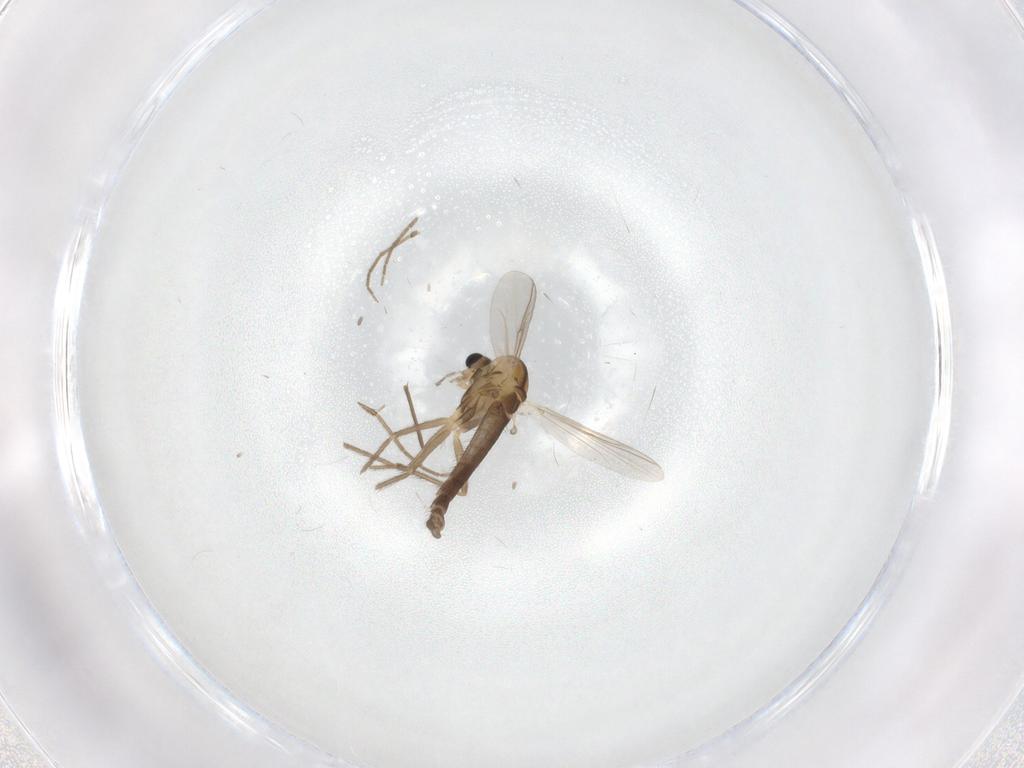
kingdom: Animalia
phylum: Arthropoda
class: Insecta
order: Diptera
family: Chironomidae
